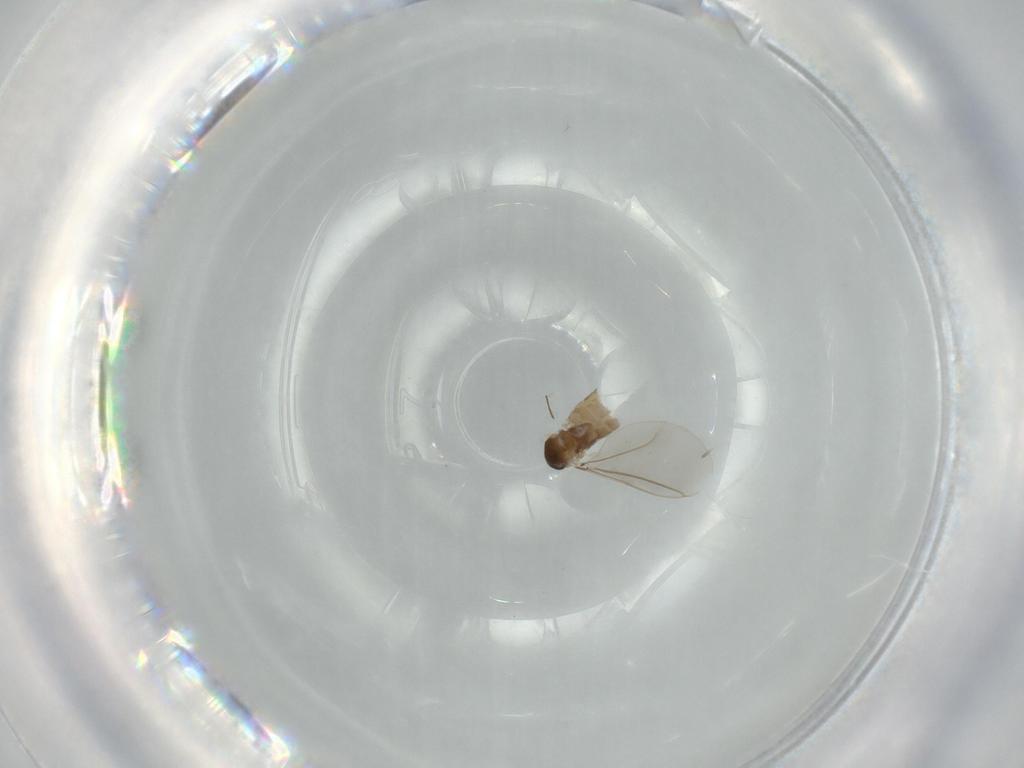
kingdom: Animalia
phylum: Arthropoda
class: Insecta
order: Diptera
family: Cecidomyiidae
